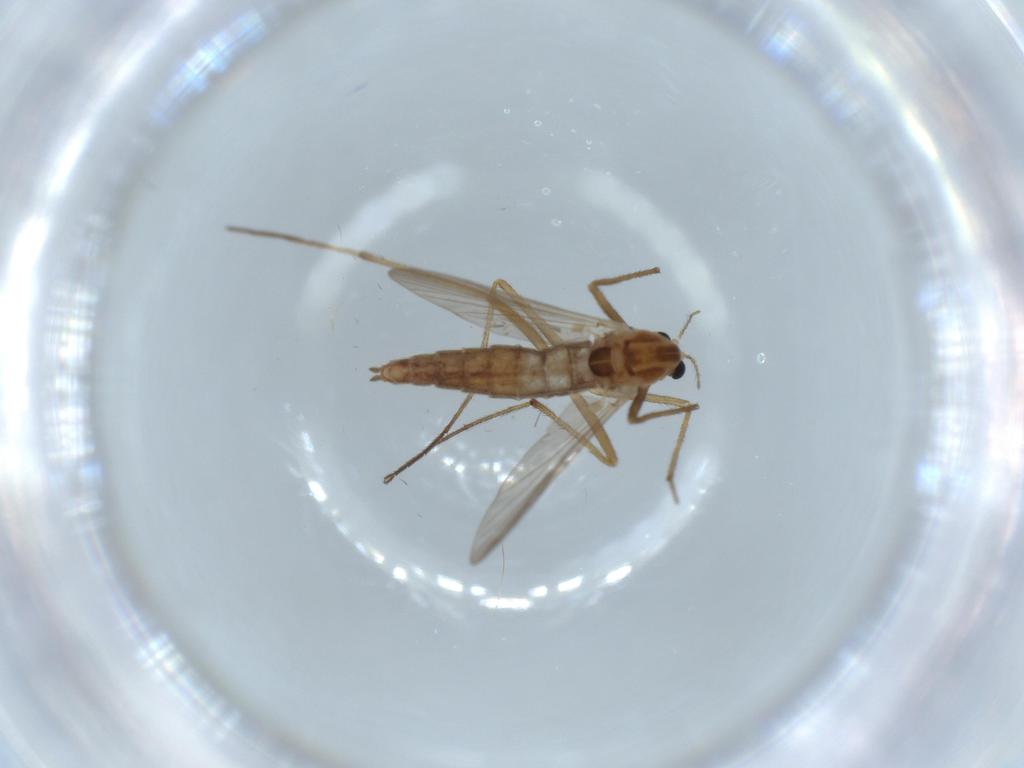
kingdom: Animalia
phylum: Arthropoda
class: Insecta
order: Diptera
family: Chironomidae
